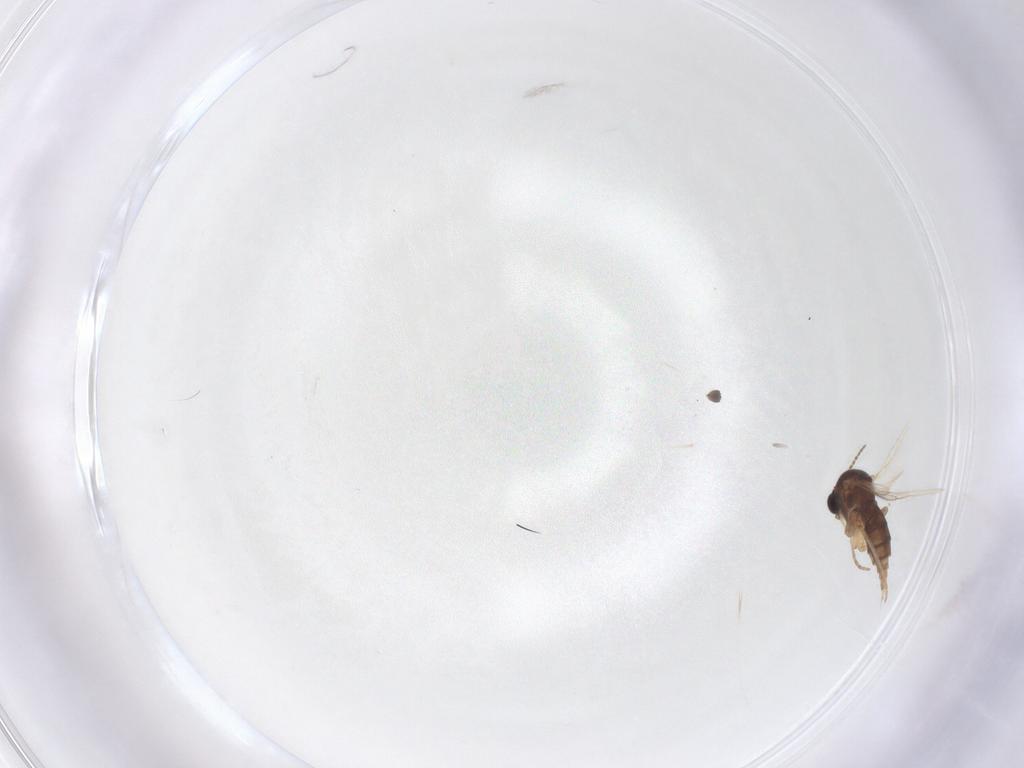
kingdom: Animalia
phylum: Arthropoda
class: Insecta
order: Diptera
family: Sciaridae
